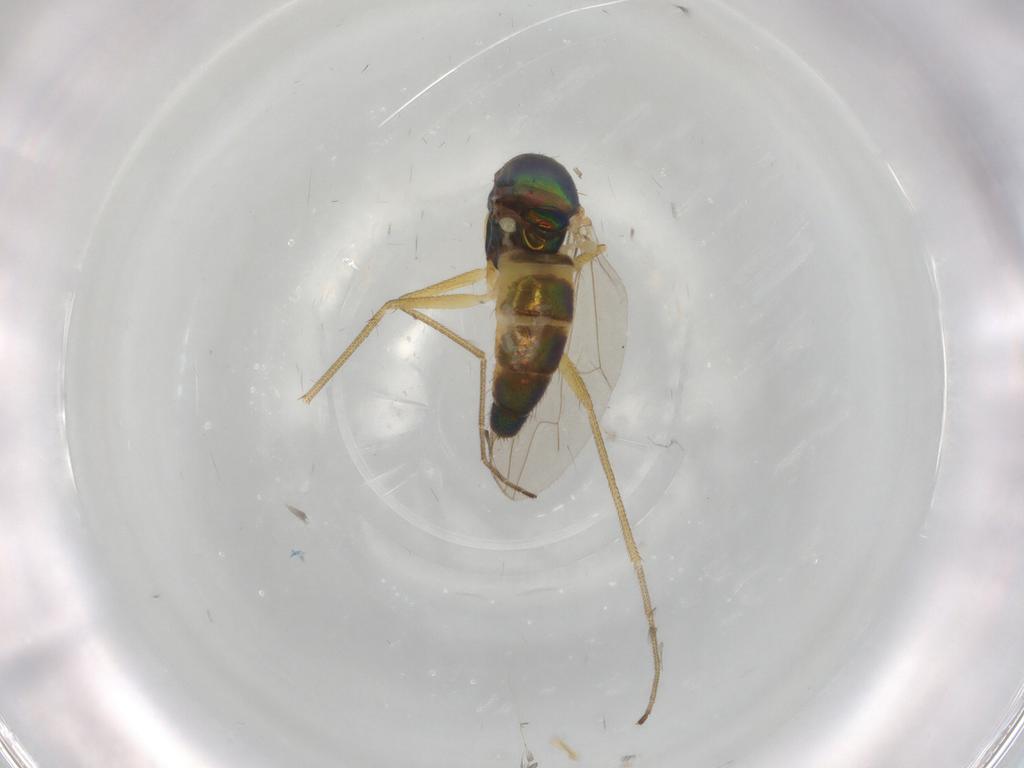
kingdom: Animalia
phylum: Arthropoda
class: Insecta
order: Diptera
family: Dolichopodidae
